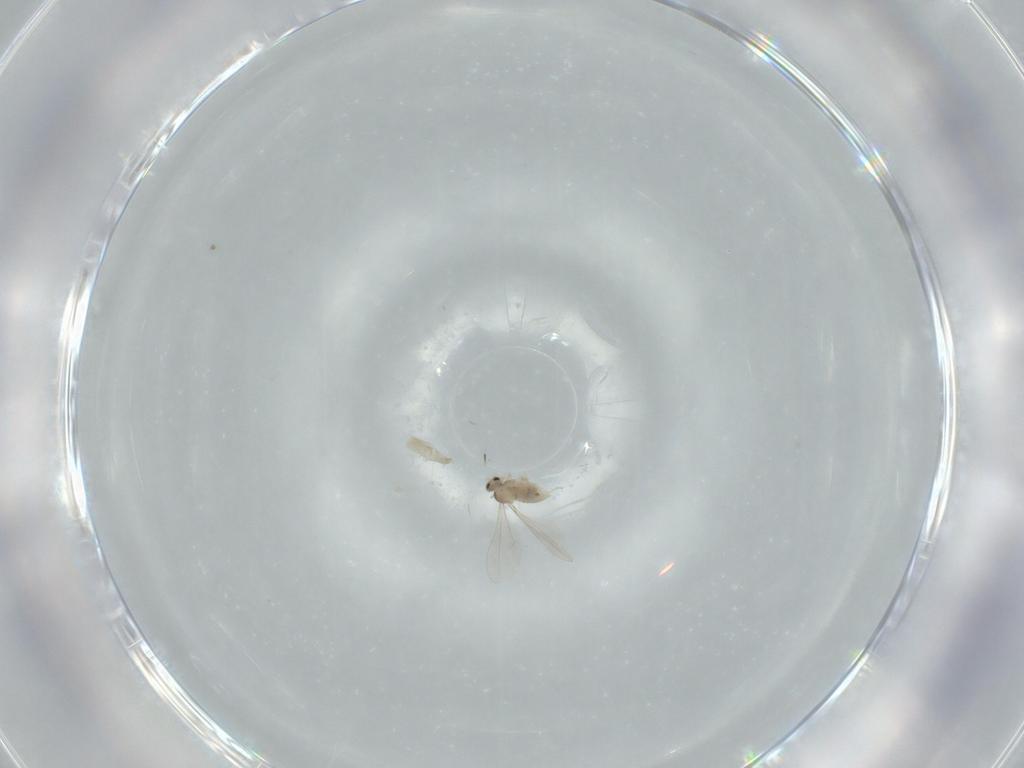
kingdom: Animalia
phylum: Arthropoda
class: Insecta
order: Diptera
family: Cecidomyiidae
